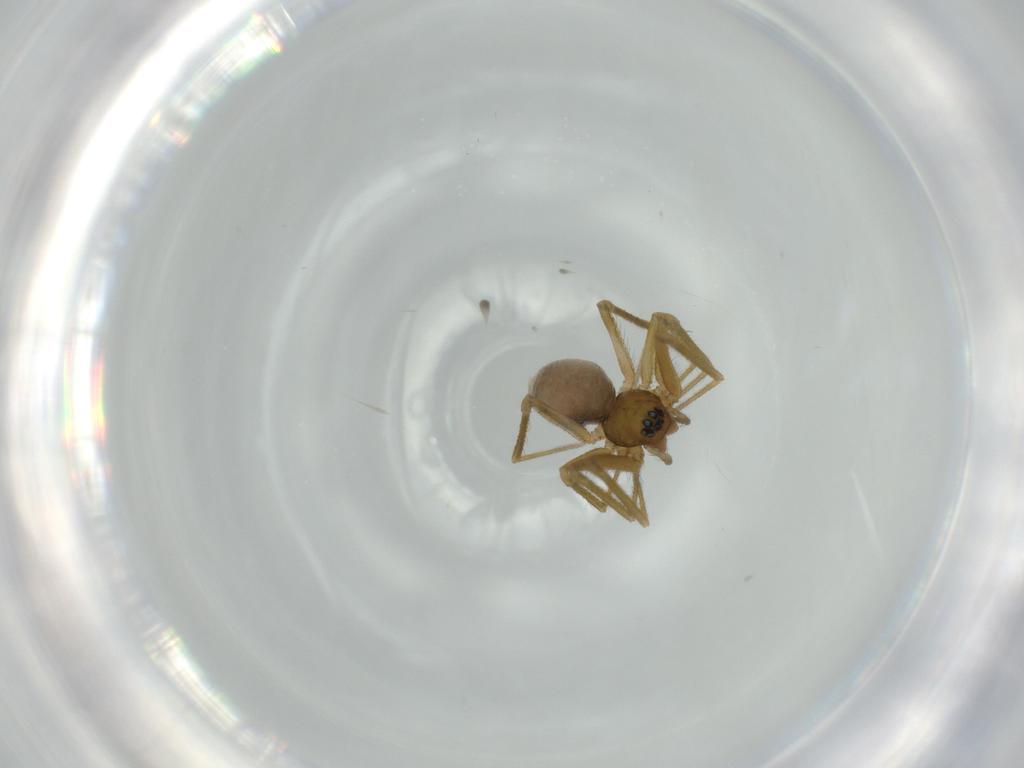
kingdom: Animalia
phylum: Arthropoda
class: Arachnida
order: Araneae
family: Linyphiidae
